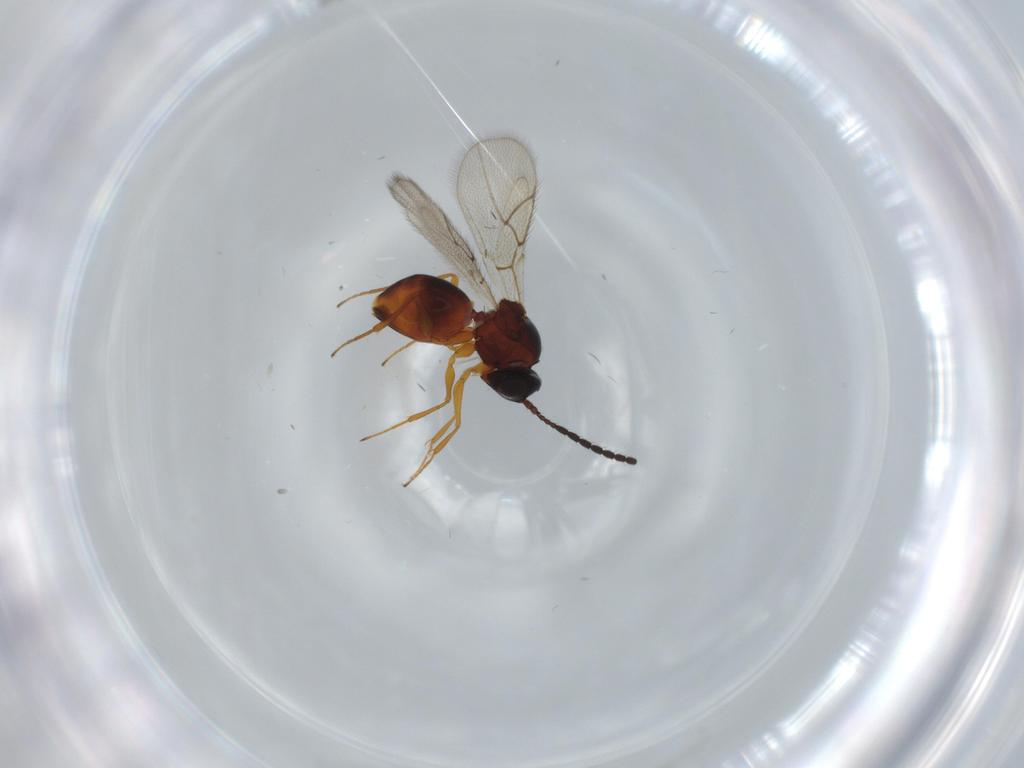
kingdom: Animalia
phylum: Arthropoda
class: Insecta
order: Hymenoptera
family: Figitidae
